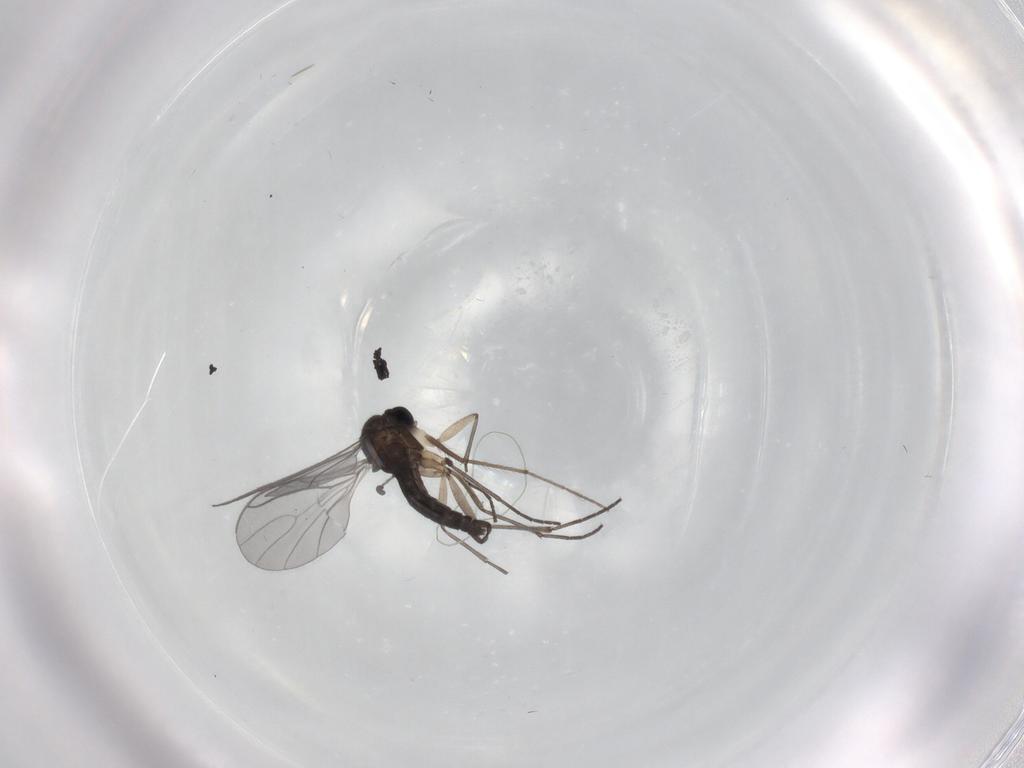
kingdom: Animalia
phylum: Arthropoda
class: Insecta
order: Diptera
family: Sciaridae
